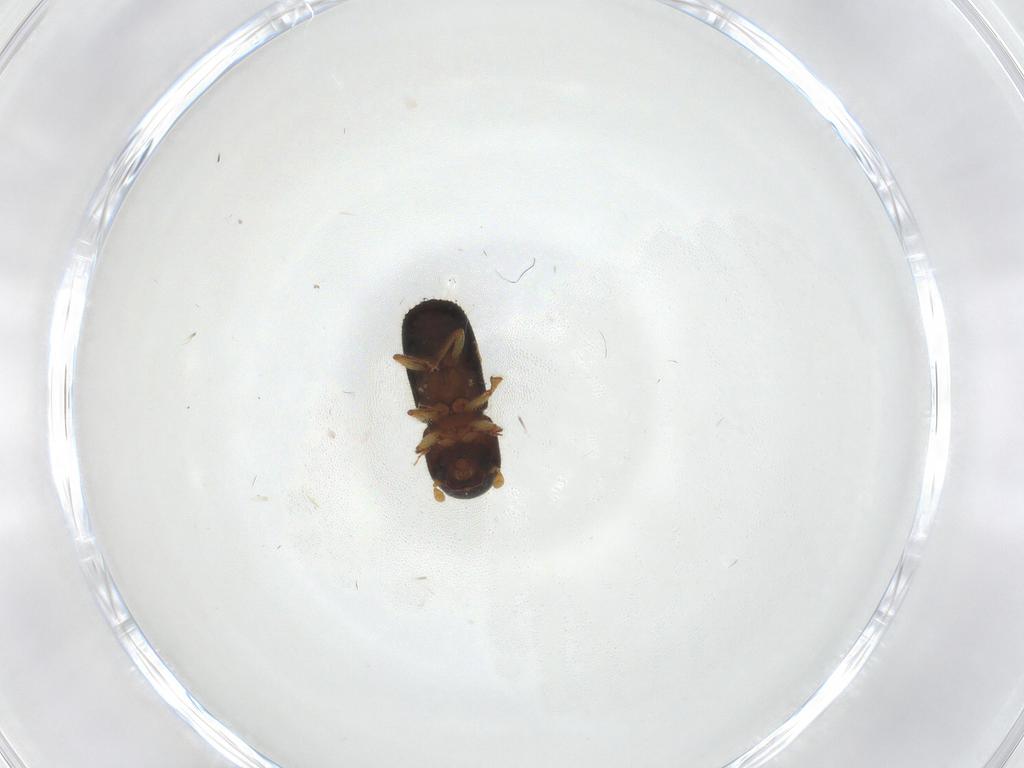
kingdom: Animalia
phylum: Arthropoda
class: Insecta
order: Coleoptera
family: Curculionidae
